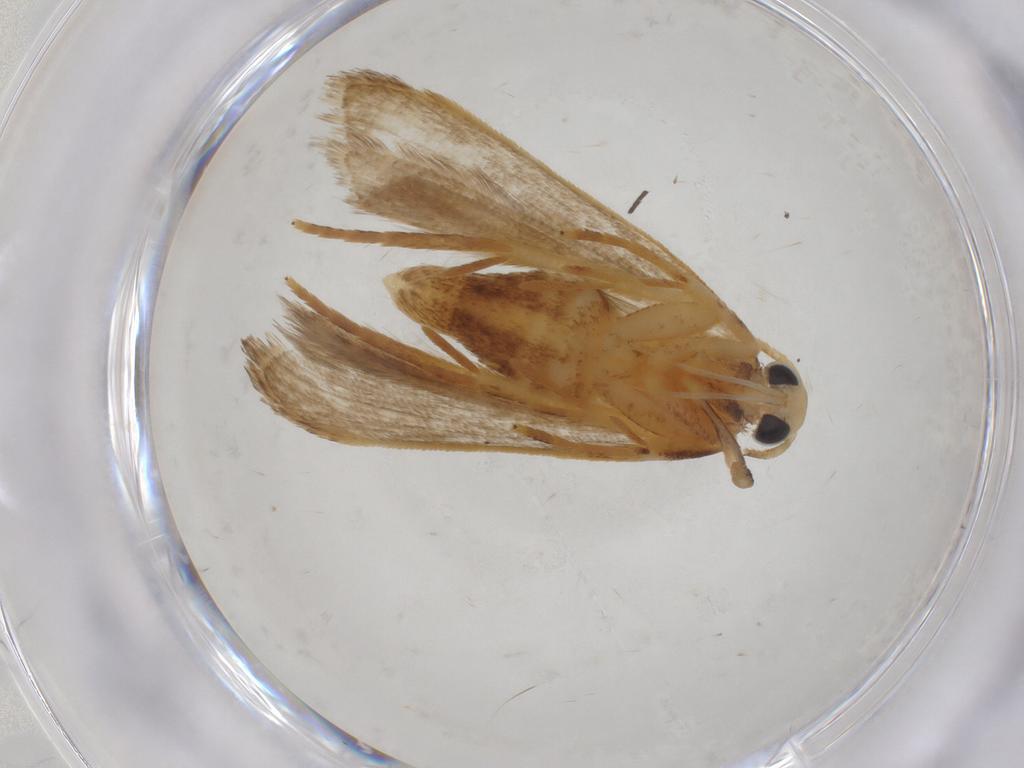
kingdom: Animalia
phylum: Arthropoda
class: Insecta
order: Lepidoptera
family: Gelechiidae
